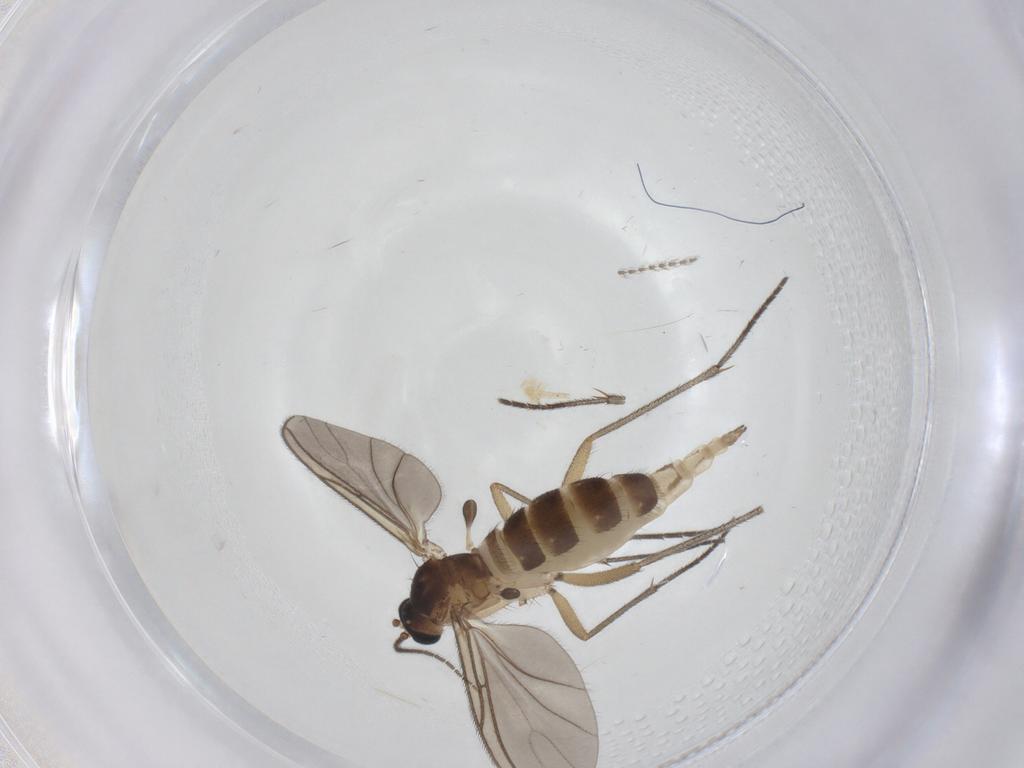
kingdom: Animalia
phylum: Arthropoda
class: Insecta
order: Diptera
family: Sciaridae
